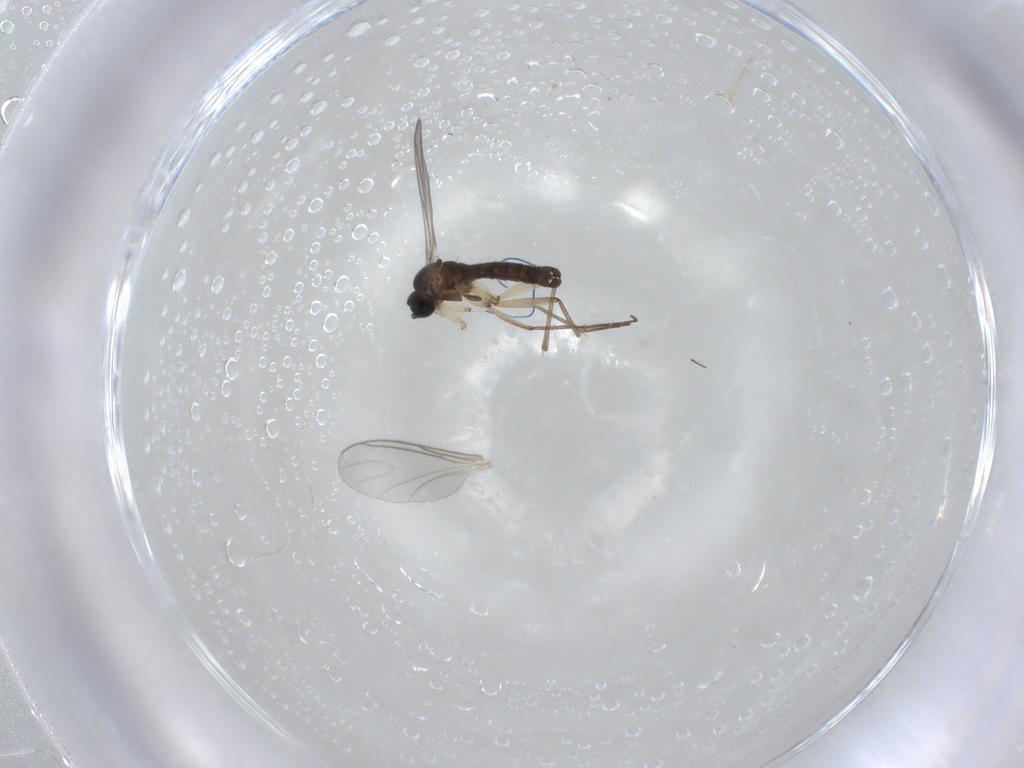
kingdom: Animalia
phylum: Arthropoda
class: Insecta
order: Diptera
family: Sciaridae
